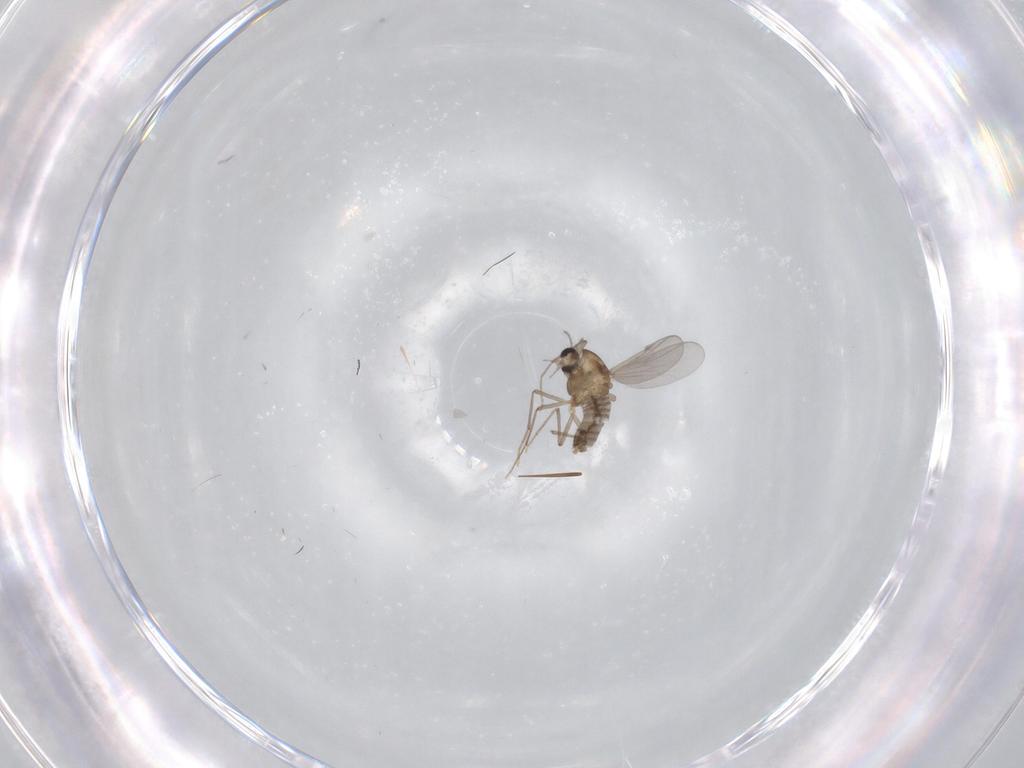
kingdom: Animalia
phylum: Arthropoda
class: Insecta
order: Diptera
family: Chironomidae
